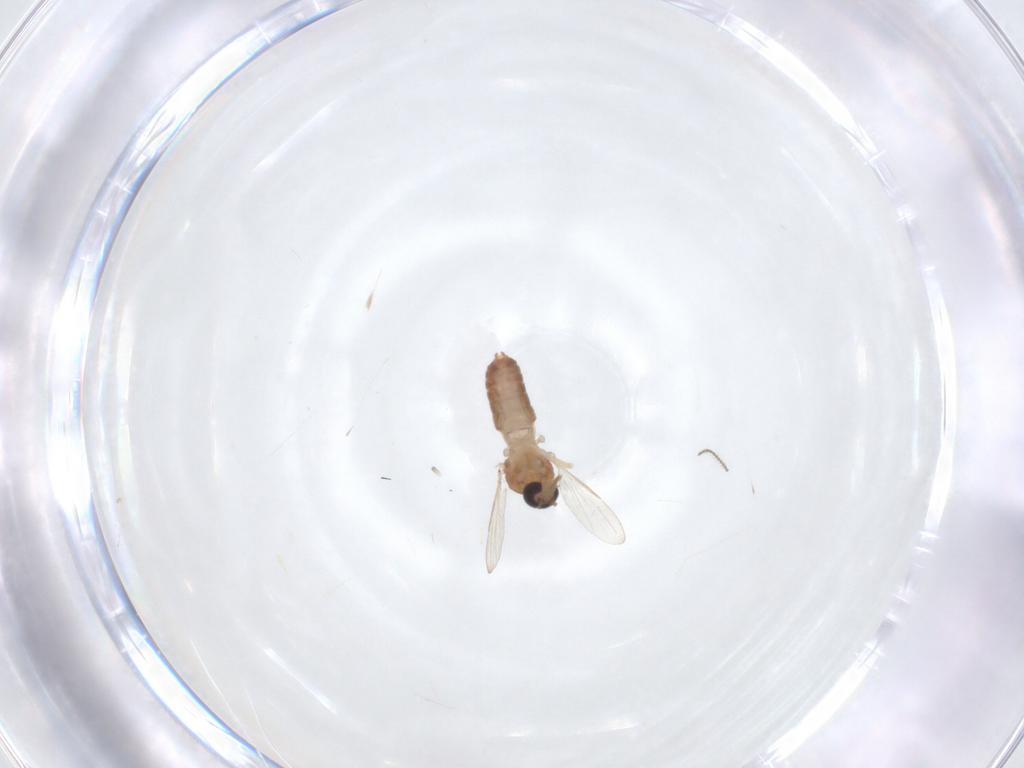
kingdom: Animalia
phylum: Arthropoda
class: Insecta
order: Diptera
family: Ceratopogonidae
